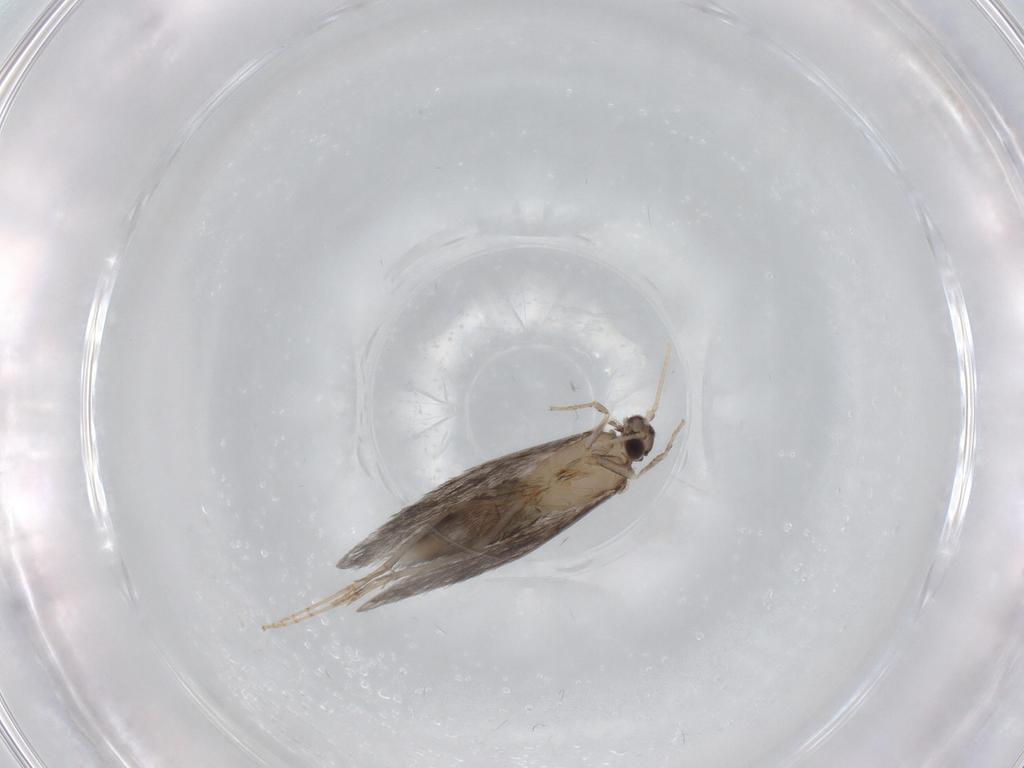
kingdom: Animalia
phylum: Arthropoda
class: Insecta
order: Trichoptera
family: Hydroptilidae
